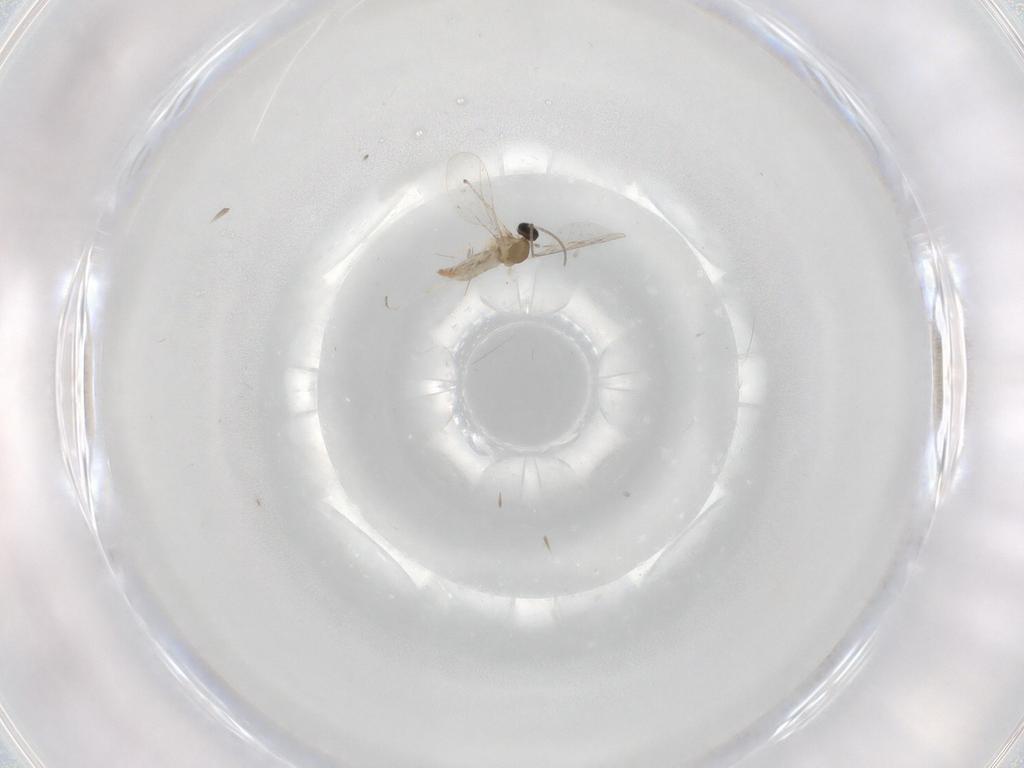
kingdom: Animalia
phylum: Arthropoda
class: Insecta
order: Diptera
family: Cecidomyiidae
